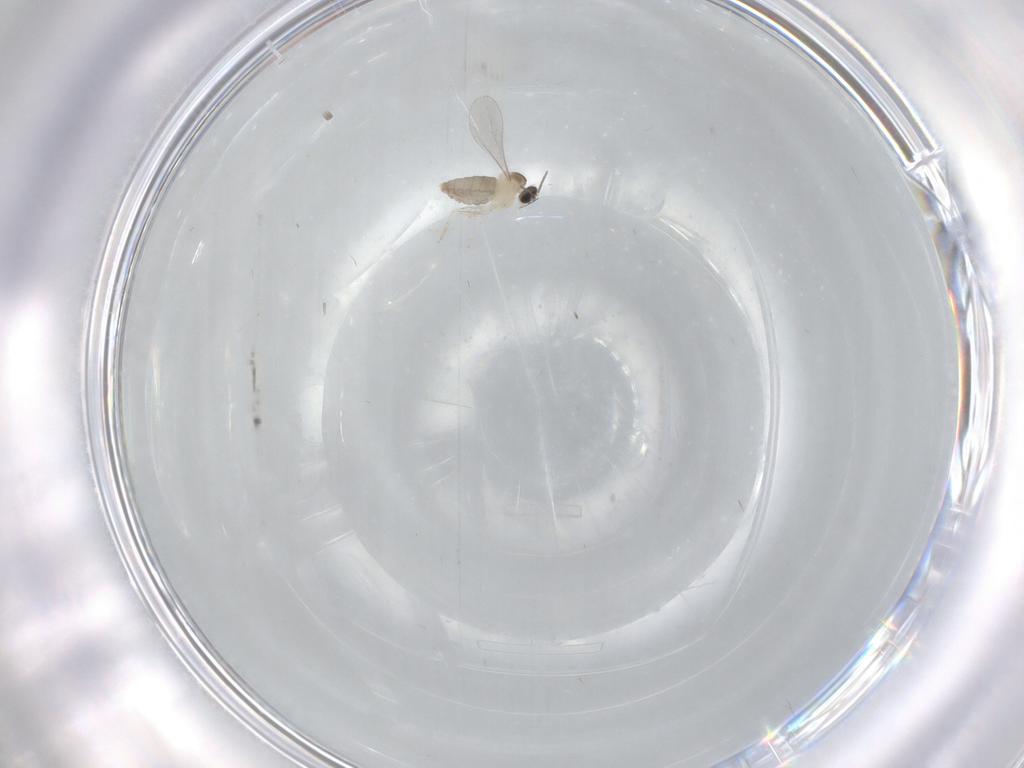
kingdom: Animalia
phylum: Arthropoda
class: Insecta
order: Diptera
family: Cecidomyiidae
